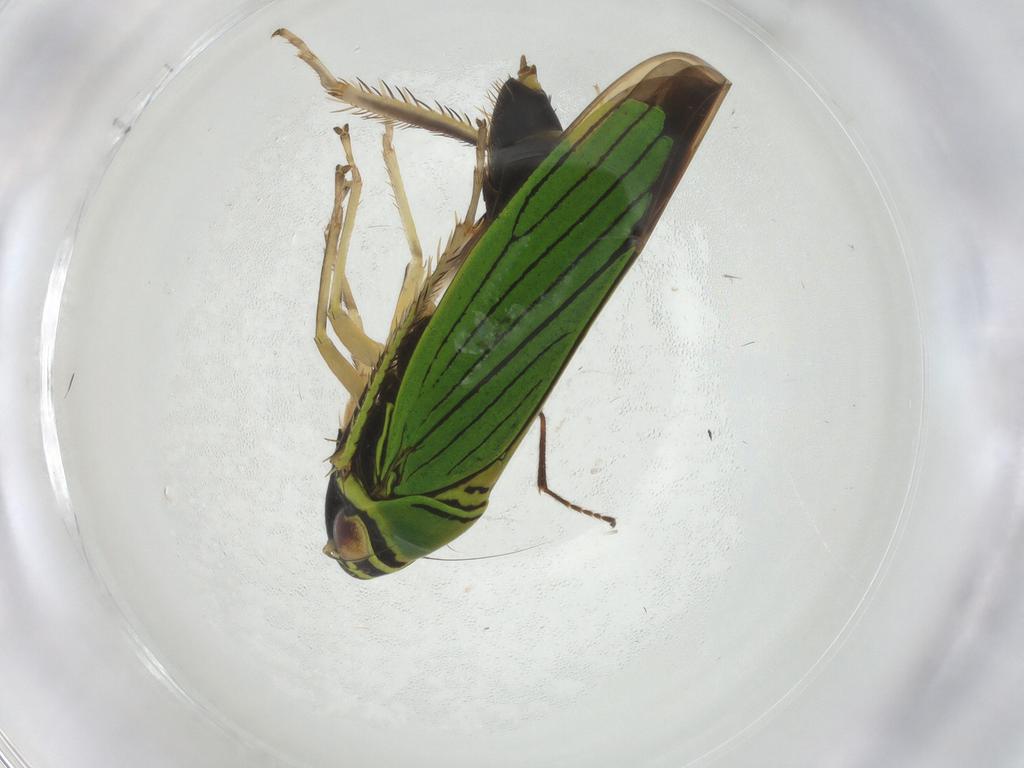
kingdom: Animalia
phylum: Arthropoda
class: Insecta
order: Hemiptera
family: Cicadellidae
